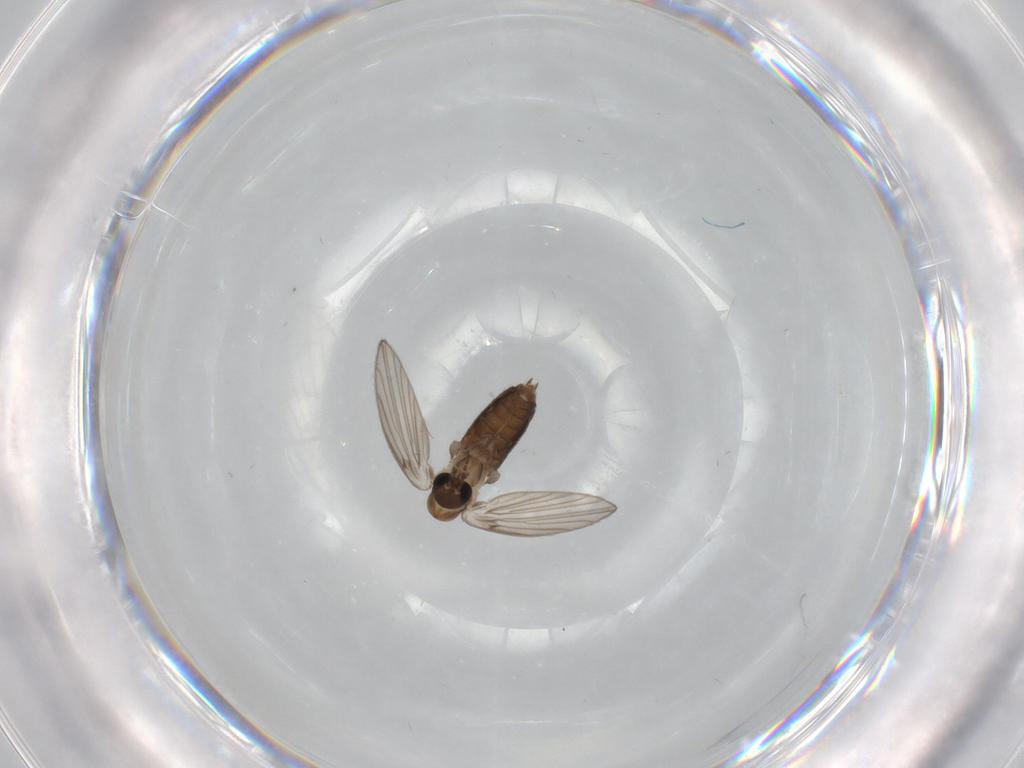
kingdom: Animalia
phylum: Arthropoda
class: Insecta
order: Diptera
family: Psychodidae
